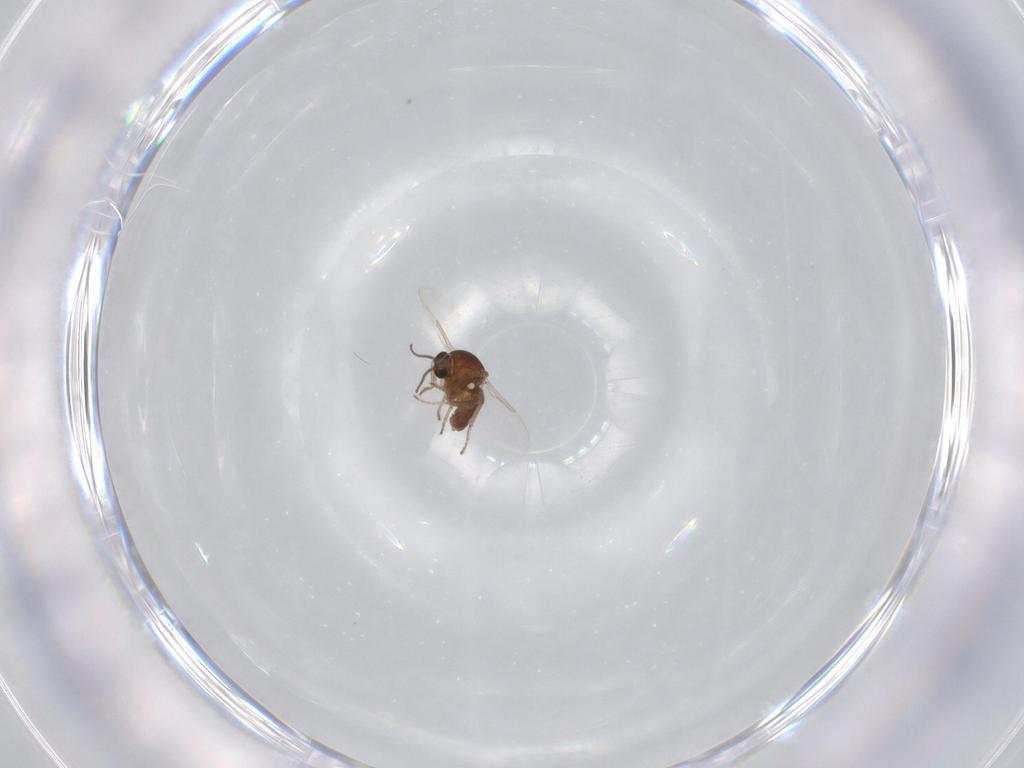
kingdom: Animalia
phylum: Arthropoda
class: Insecta
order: Diptera
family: Ceratopogonidae
